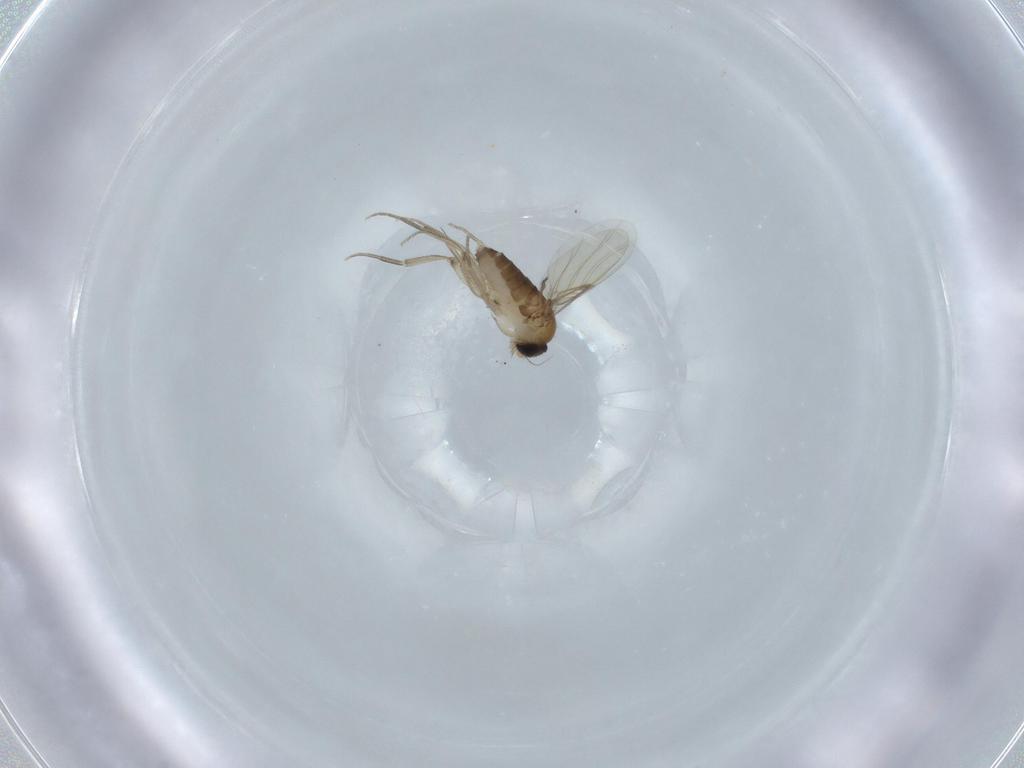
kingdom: Animalia
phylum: Arthropoda
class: Insecta
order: Diptera
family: Phoridae
